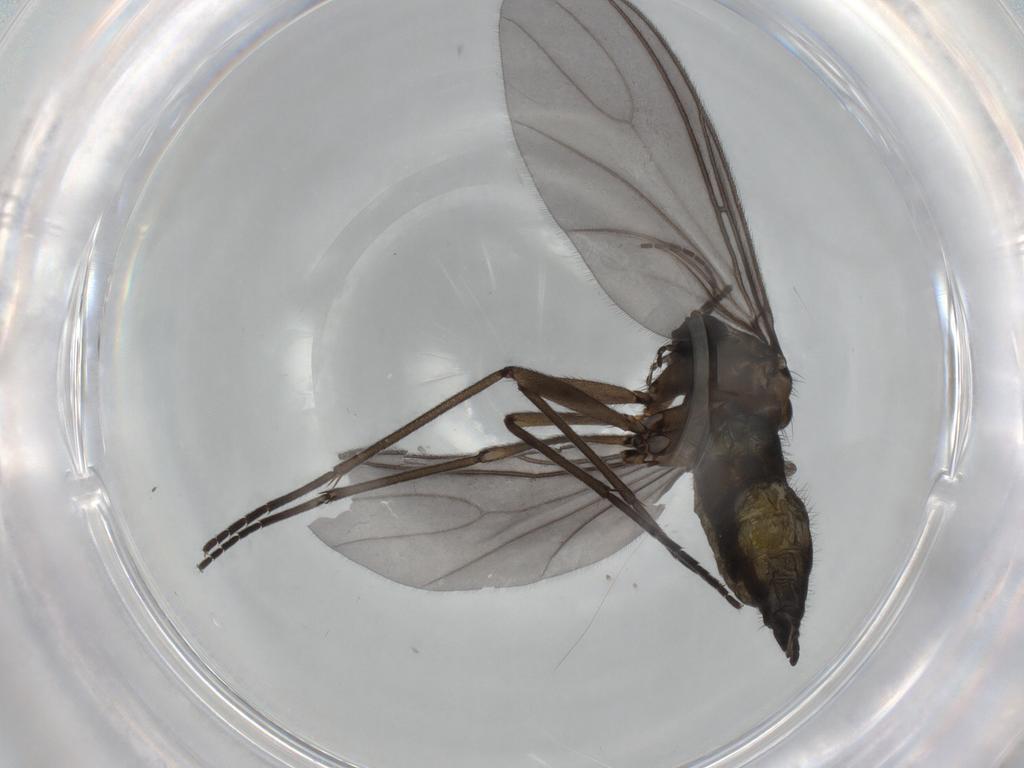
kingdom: Animalia
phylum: Arthropoda
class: Insecta
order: Diptera
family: Sciaridae
